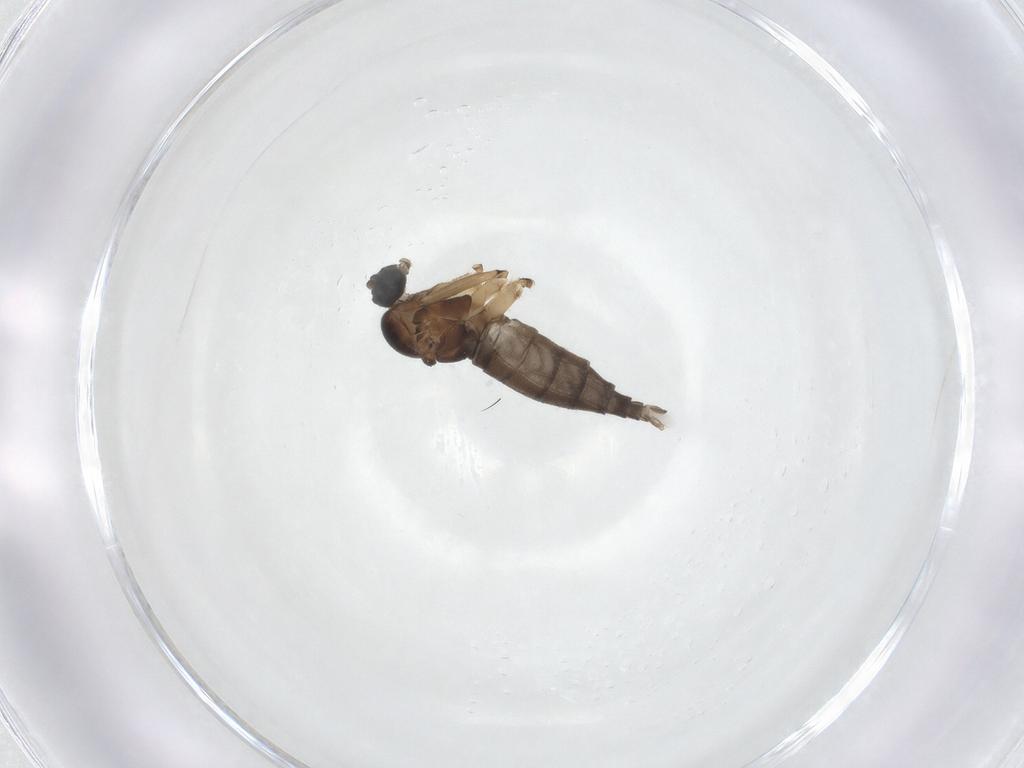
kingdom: Animalia
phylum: Arthropoda
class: Insecta
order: Diptera
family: Sciaridae
